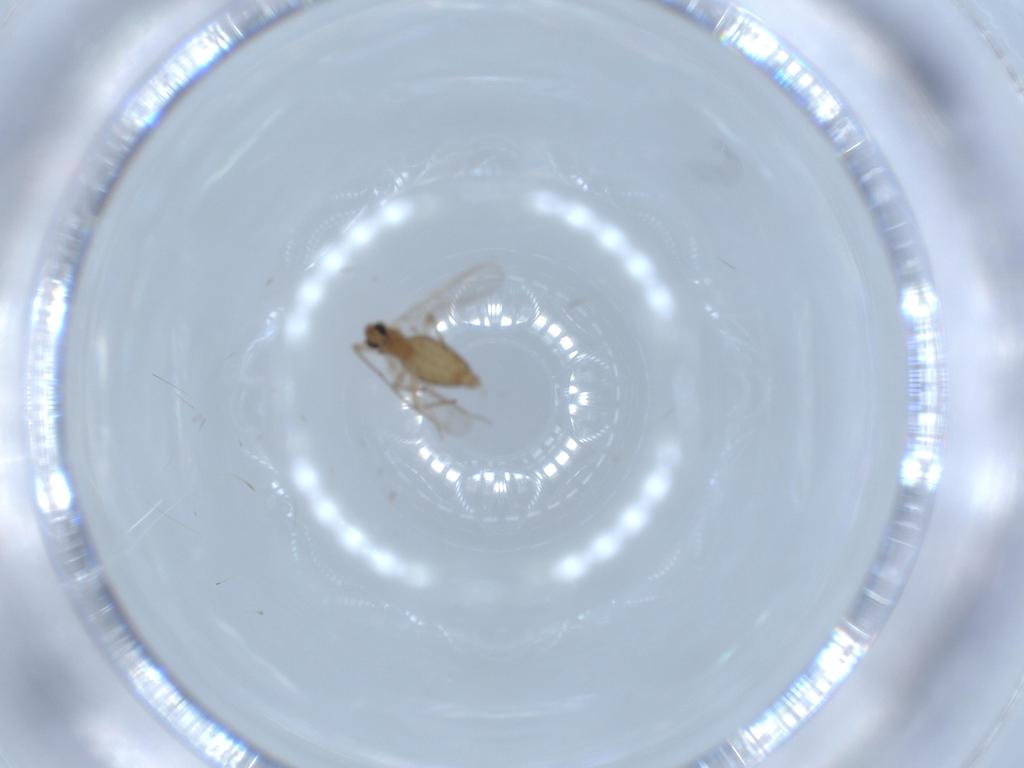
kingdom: Animalia
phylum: Arthropoda
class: Insecta
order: Diptera
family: Chironomidae
